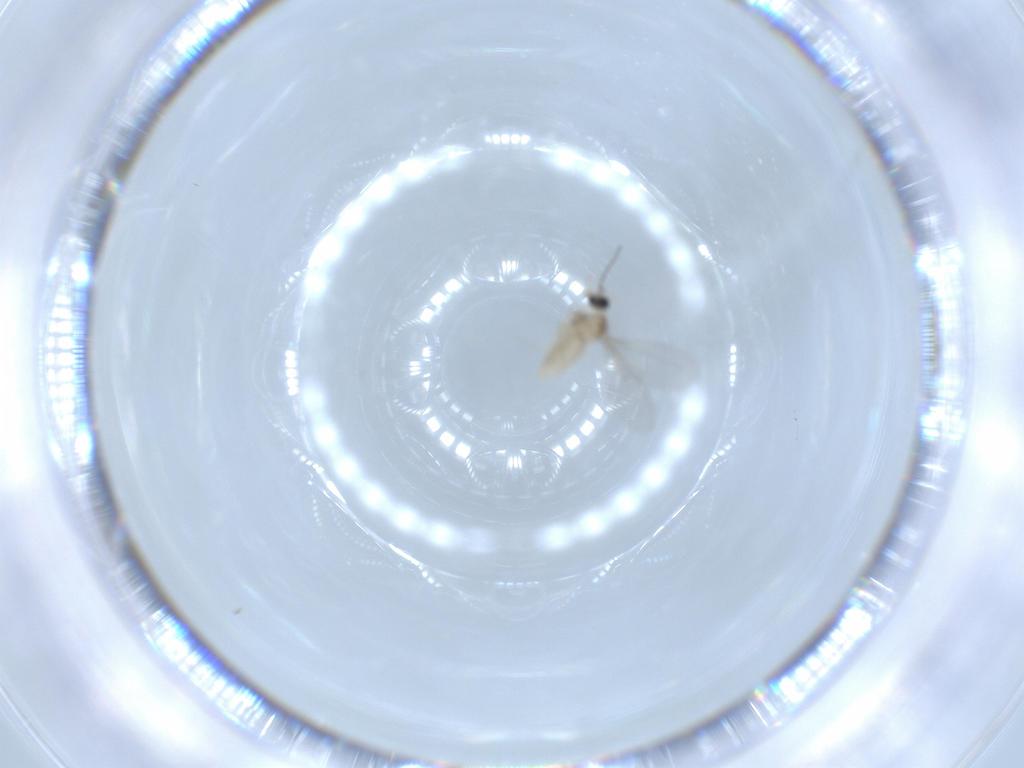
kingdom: Animalia
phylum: Arthropoda
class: Insecta
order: Diptera
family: Cecidomyiidae
